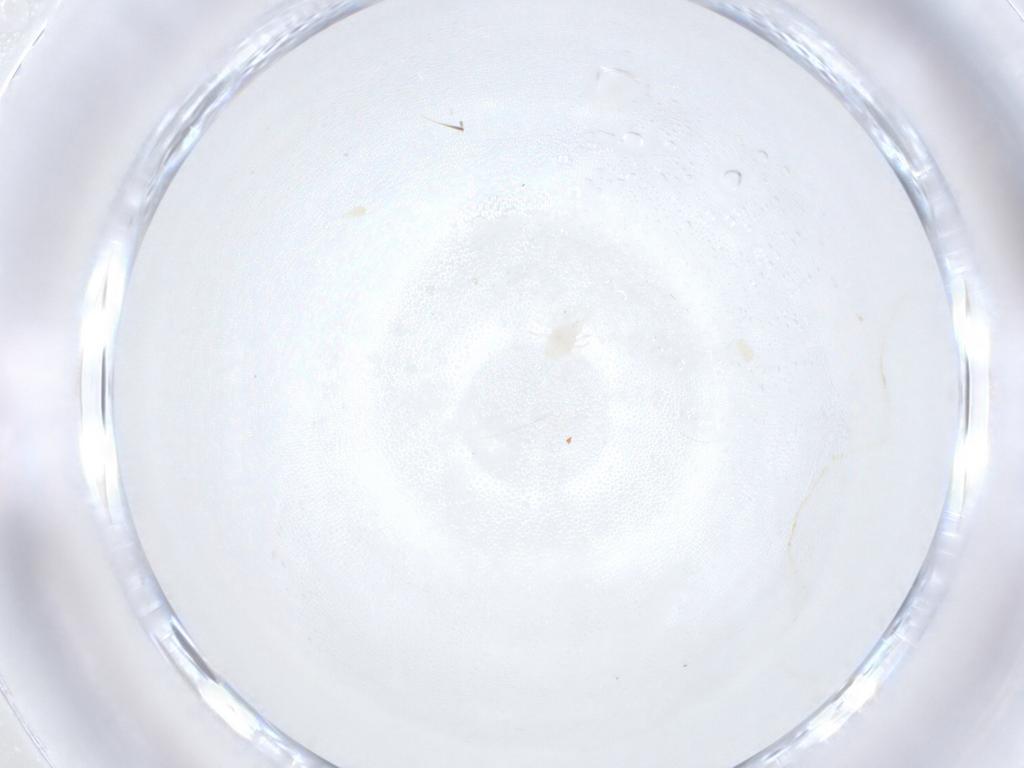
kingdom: Animalia
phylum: Arthropoda
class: Arachnida
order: Mesostigmata
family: Melicharidae
